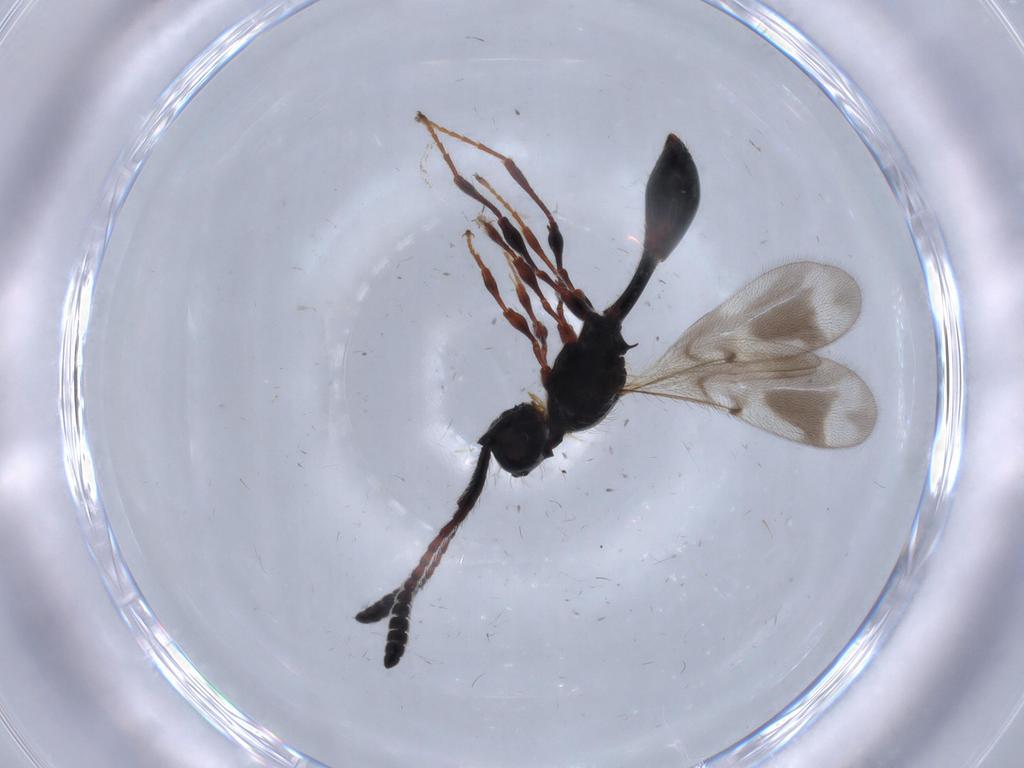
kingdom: Animalia
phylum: Arthropoda
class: Insecta
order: Hymenoptera
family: Diapriidae
